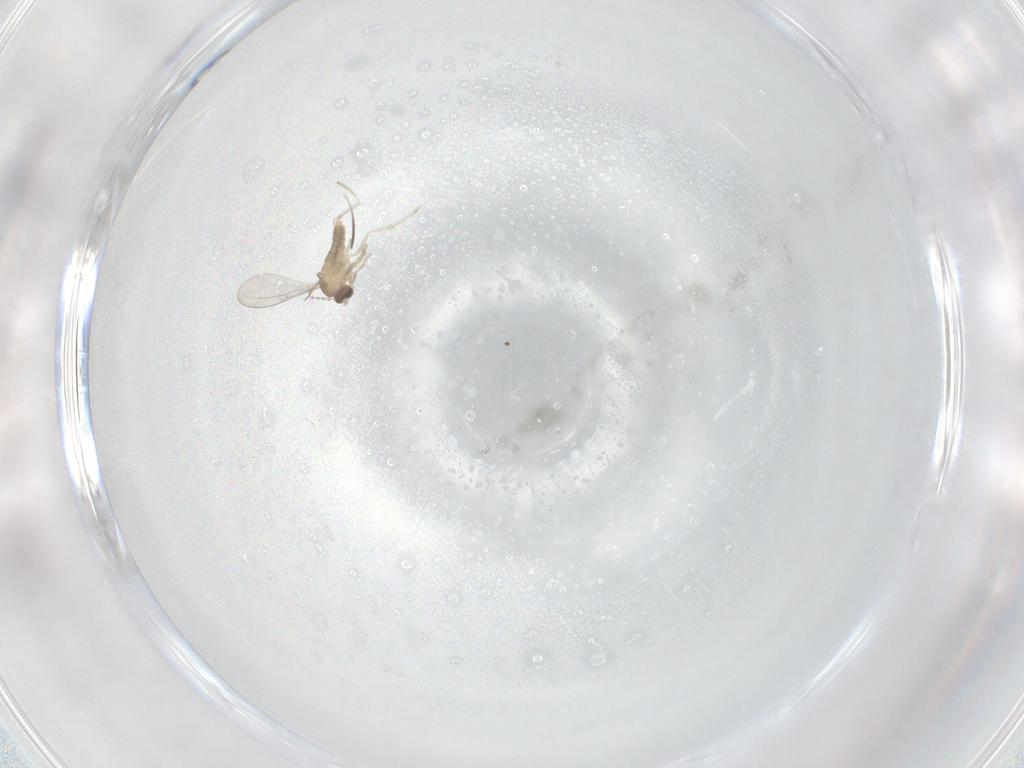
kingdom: Animalia
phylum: Arthropoda
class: Insecta
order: Diptera
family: Cecidomyiidae
